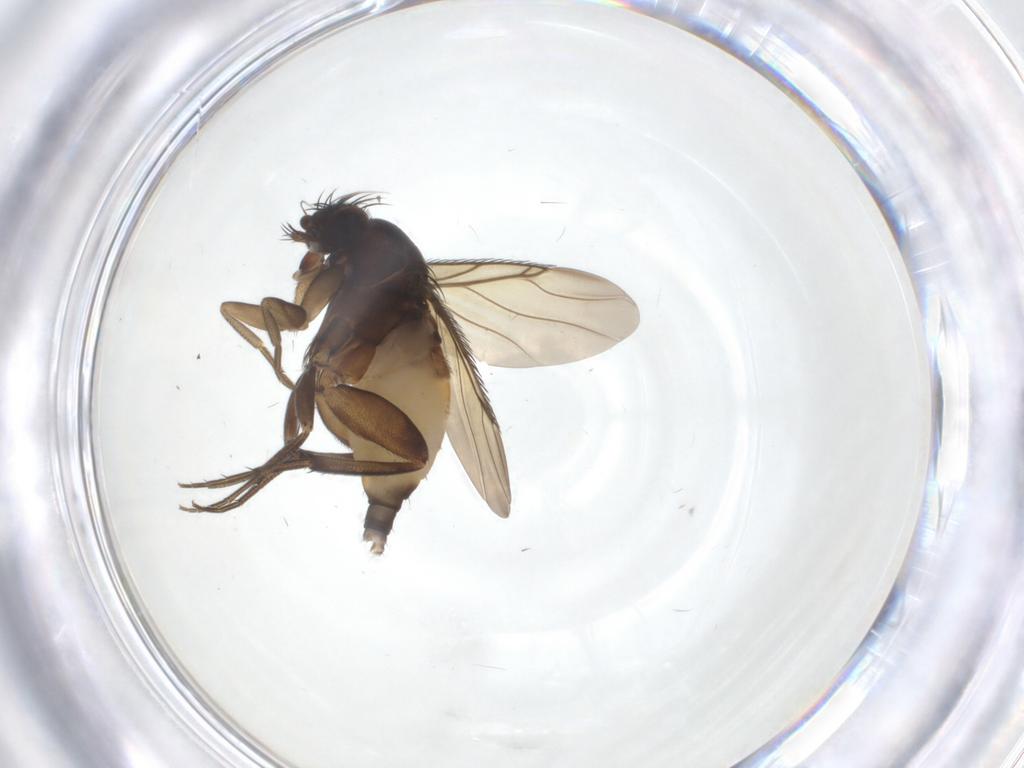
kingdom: Animalia
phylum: Arthropoda
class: Insecta
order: Diptera
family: Phoridae
